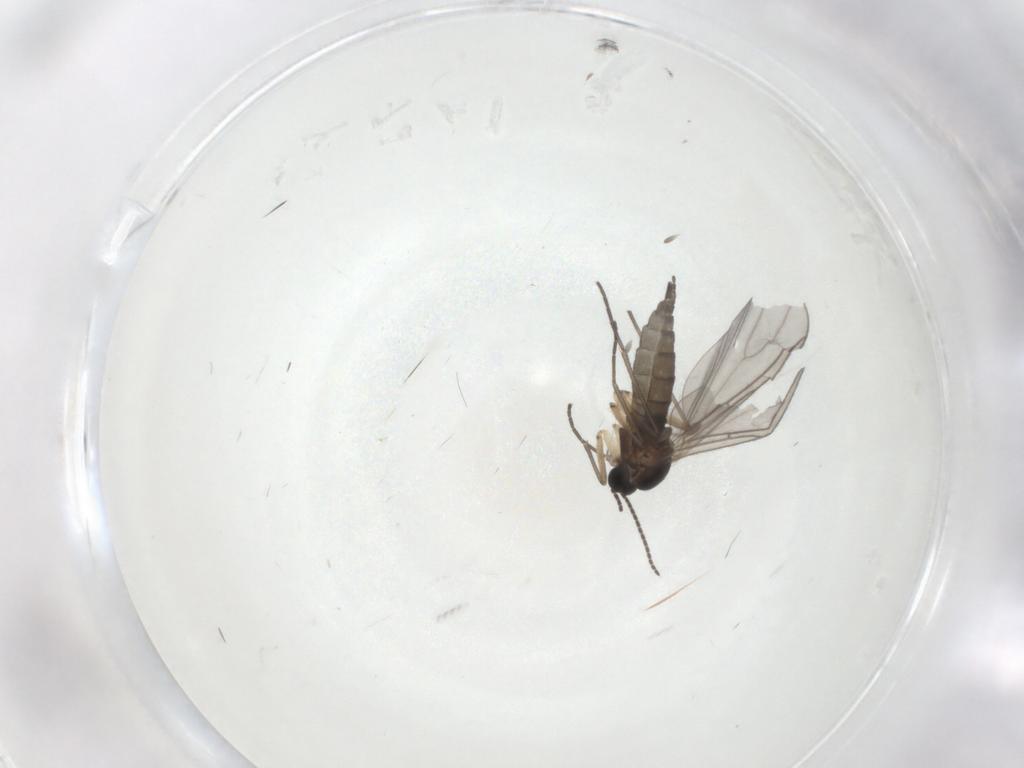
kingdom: Animalia
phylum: Arthropoda
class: Insecta
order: Diptera
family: Sciaridae
